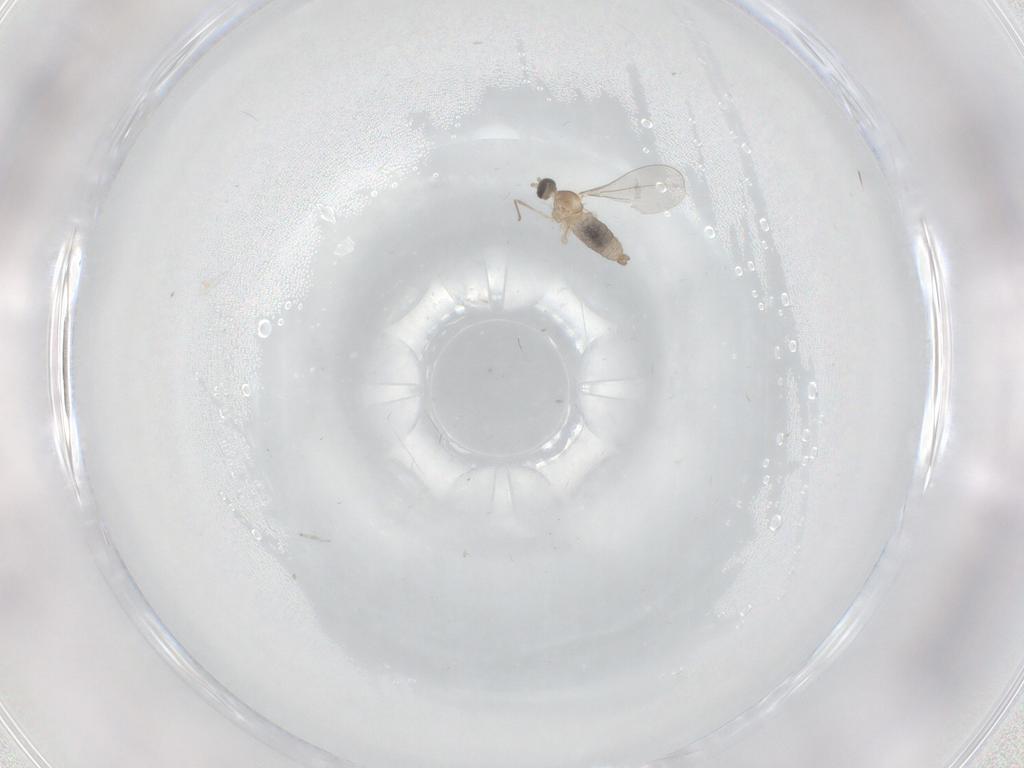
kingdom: Animalia
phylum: Arthropoda
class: Insecta
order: Diptera
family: Cecidomyiidae
